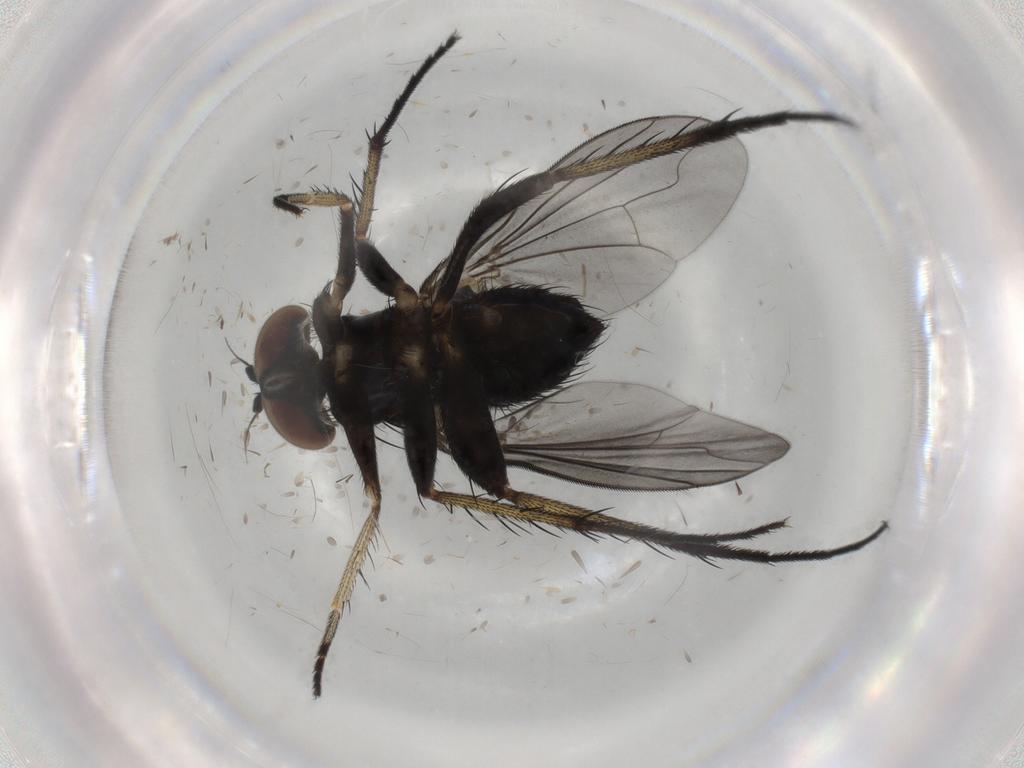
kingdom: Animalia
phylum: Arthropoda
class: Insecta
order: Diptera
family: Dolichopodidae
